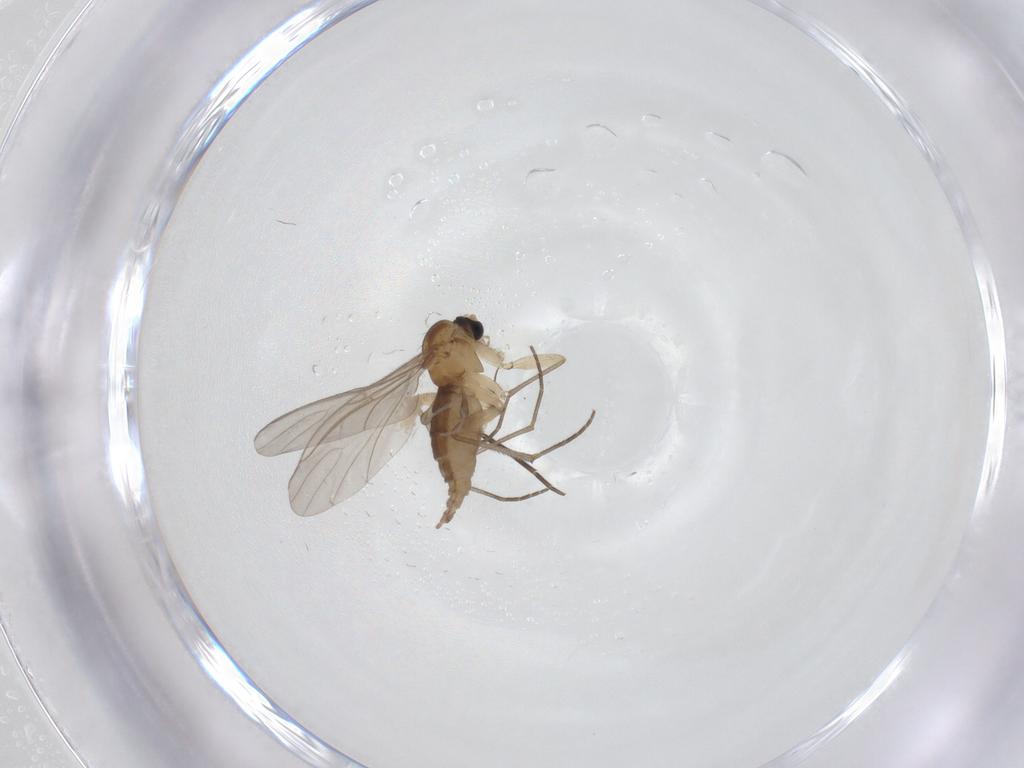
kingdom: Animalia
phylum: Arthropoda
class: Insecta
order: Diptera
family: Sciaridae
